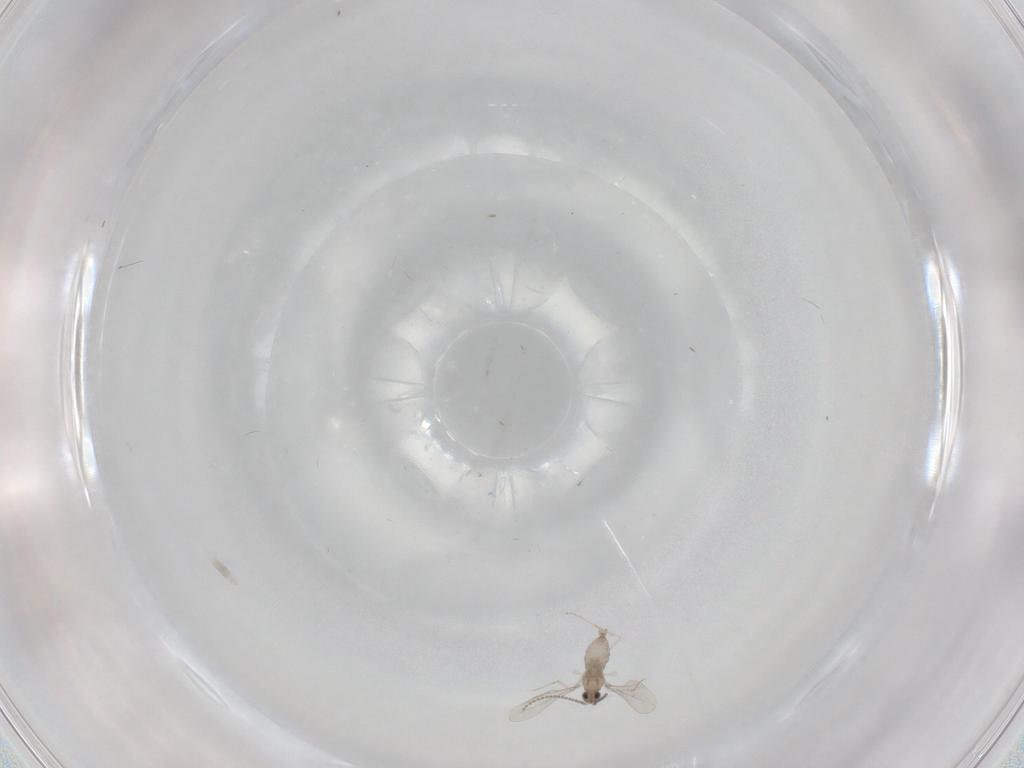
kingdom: Animalia
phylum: Arthropoda
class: Insecta
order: Diptera
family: Cecidomyiidae
